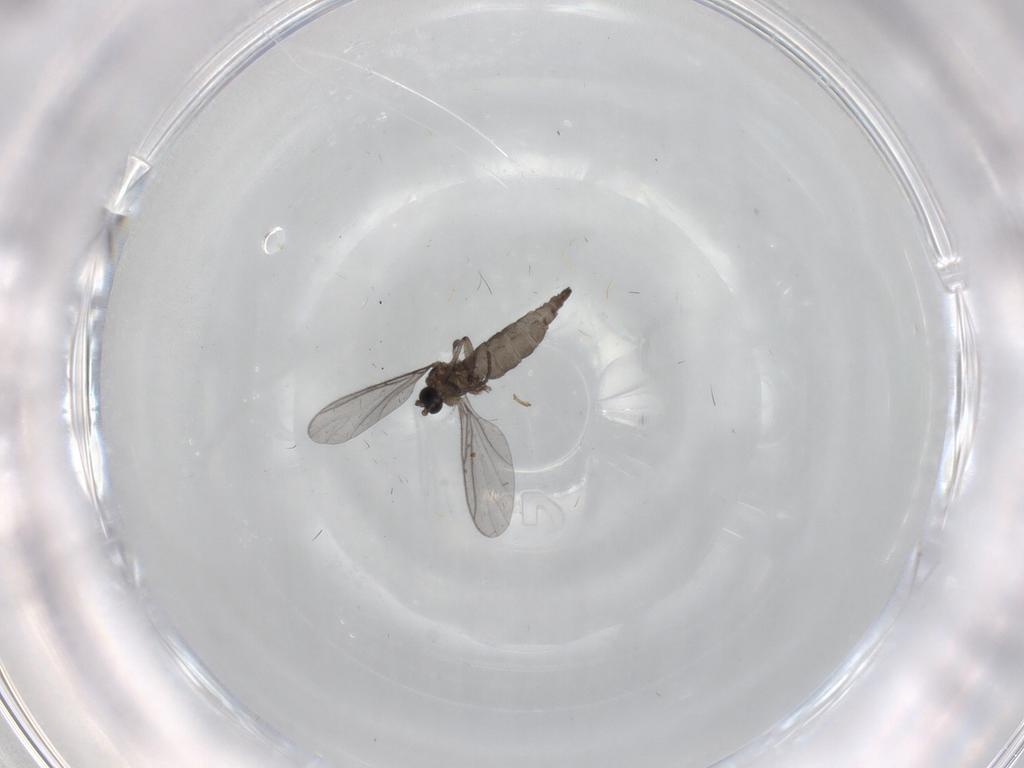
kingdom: Animalia
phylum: Arthropoda
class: Insecta
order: Diptera
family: Sciaridae
